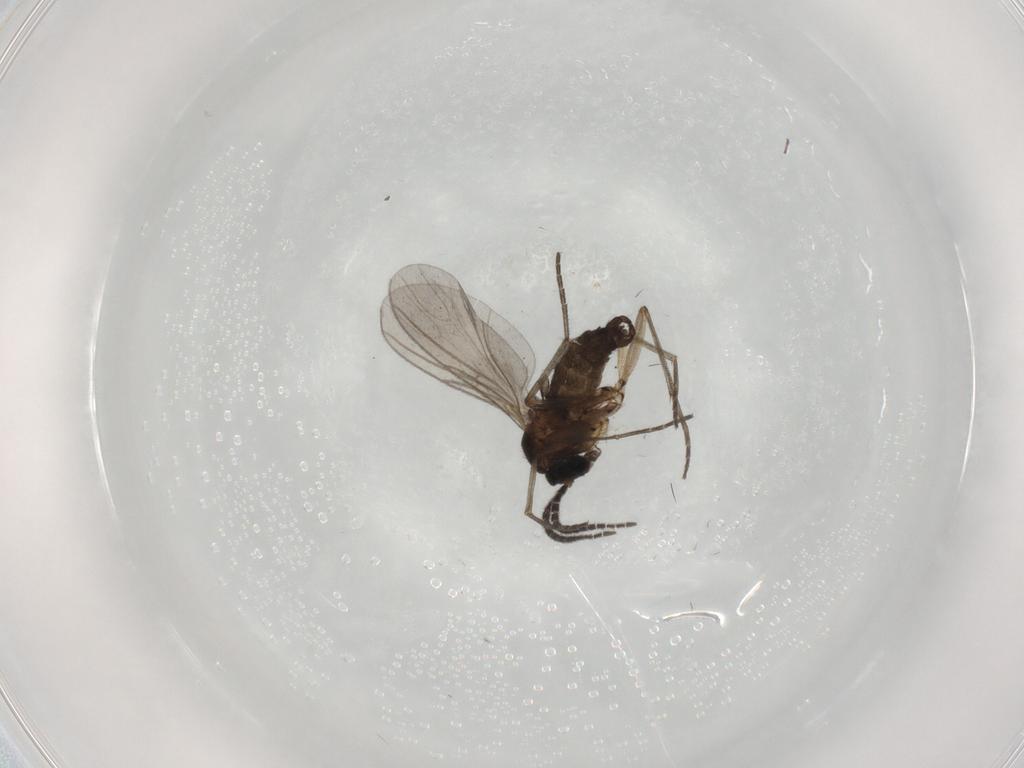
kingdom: Animalia
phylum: Arthropoda
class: Insecta
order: Diptera
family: Sciaridae
